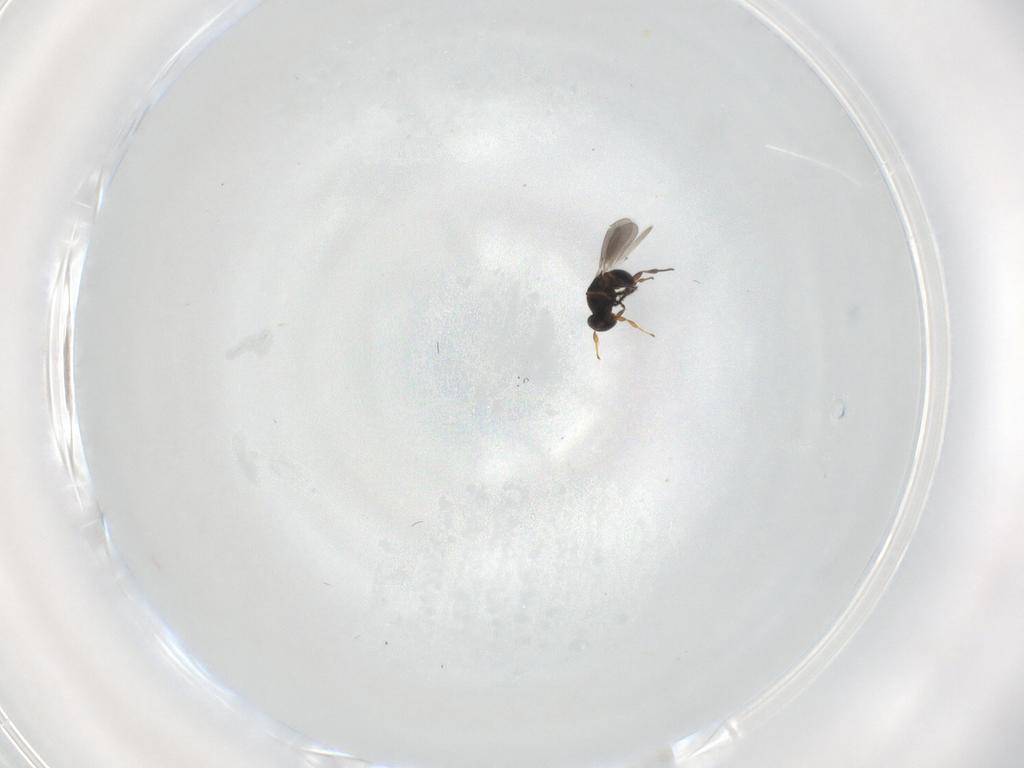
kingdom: Animalia
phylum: Arthropoda
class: Insecta
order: Hymenoptera
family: Platygastridae
